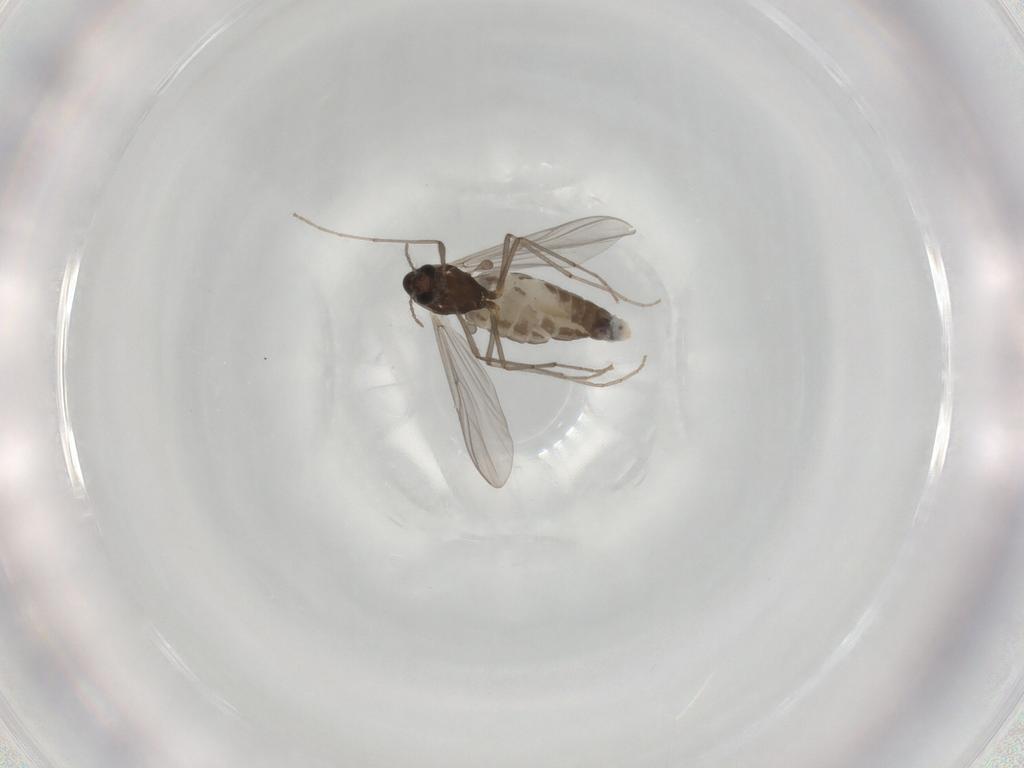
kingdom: Animalia
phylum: Arthropoda
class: Insecta
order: Diptera
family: Chironomidae
